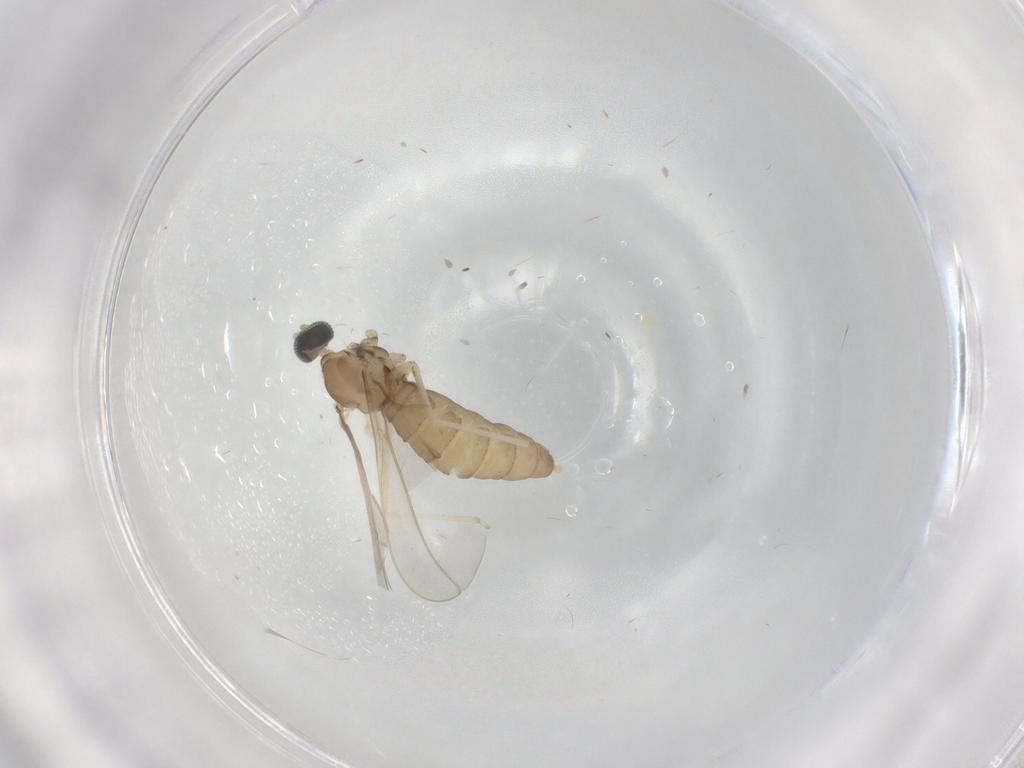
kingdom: Animalia
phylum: Arthropoda
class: Insecta
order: Diptera
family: Cecidomyiidae
